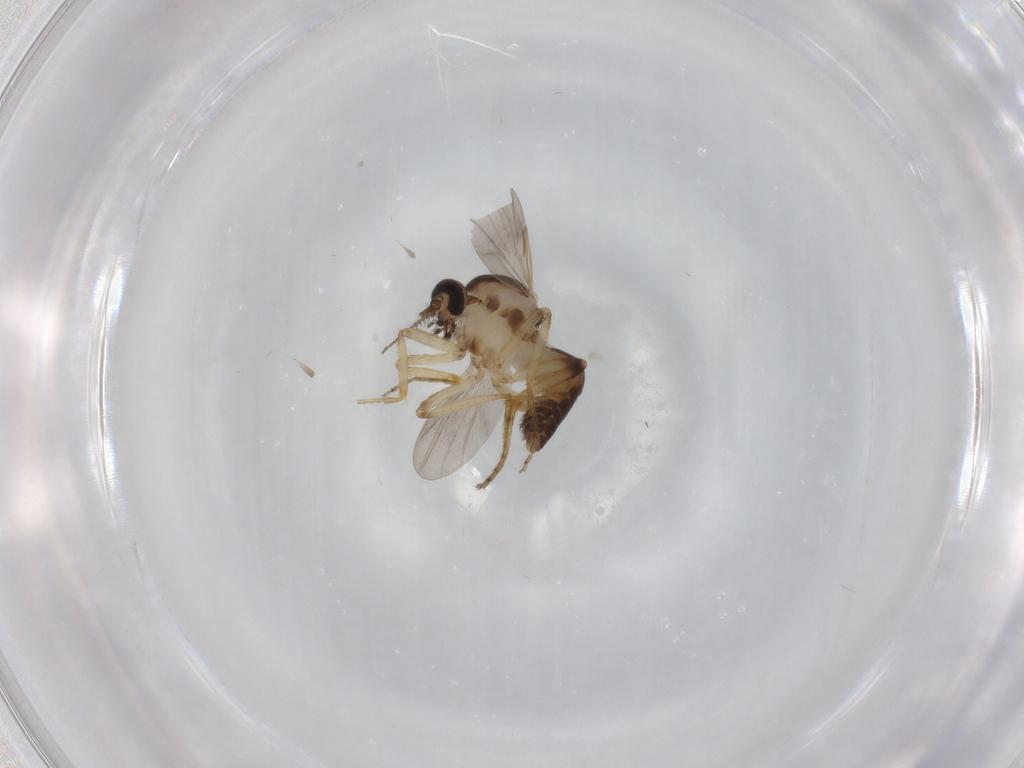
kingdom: Animalia
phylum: Arthropoda
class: Insecta
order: Diptera
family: Ceratopogonidae
